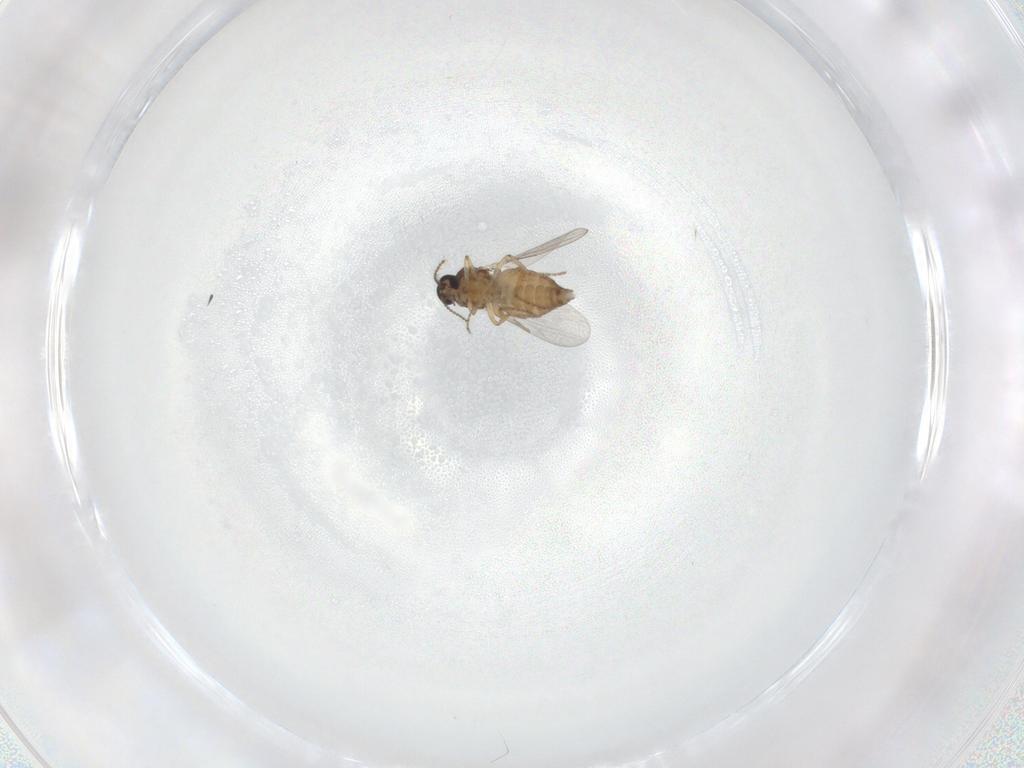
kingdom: Animalia
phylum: Arthropoda
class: Insecta
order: Diptera
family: Ceratopogonidae
